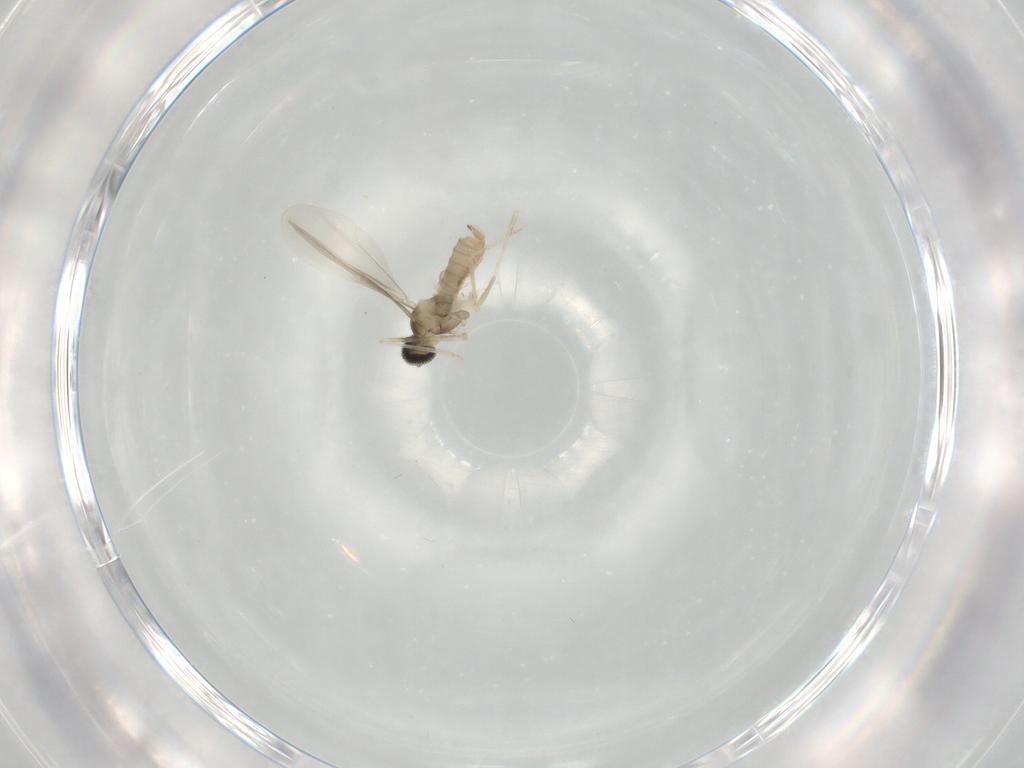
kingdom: Animalia
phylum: Arthropoda
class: Insecta
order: Diptera
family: Cecidomyiidae
